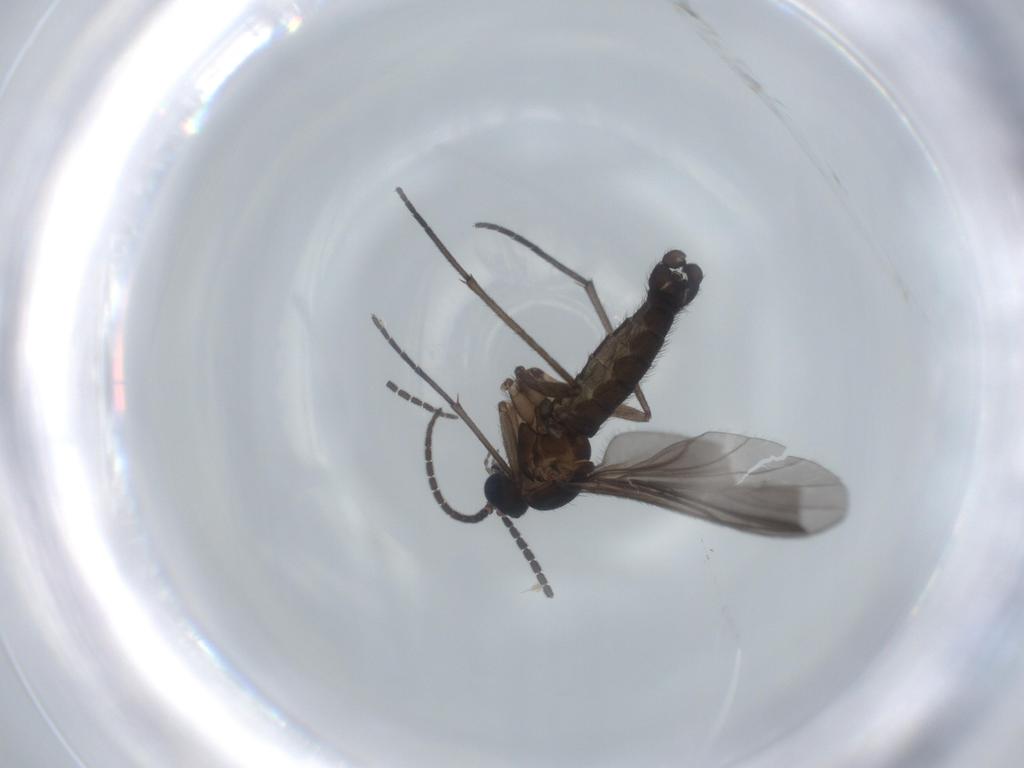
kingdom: Animalia
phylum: Arthropoda
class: Insecta
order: Diptera
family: Sciaridae
